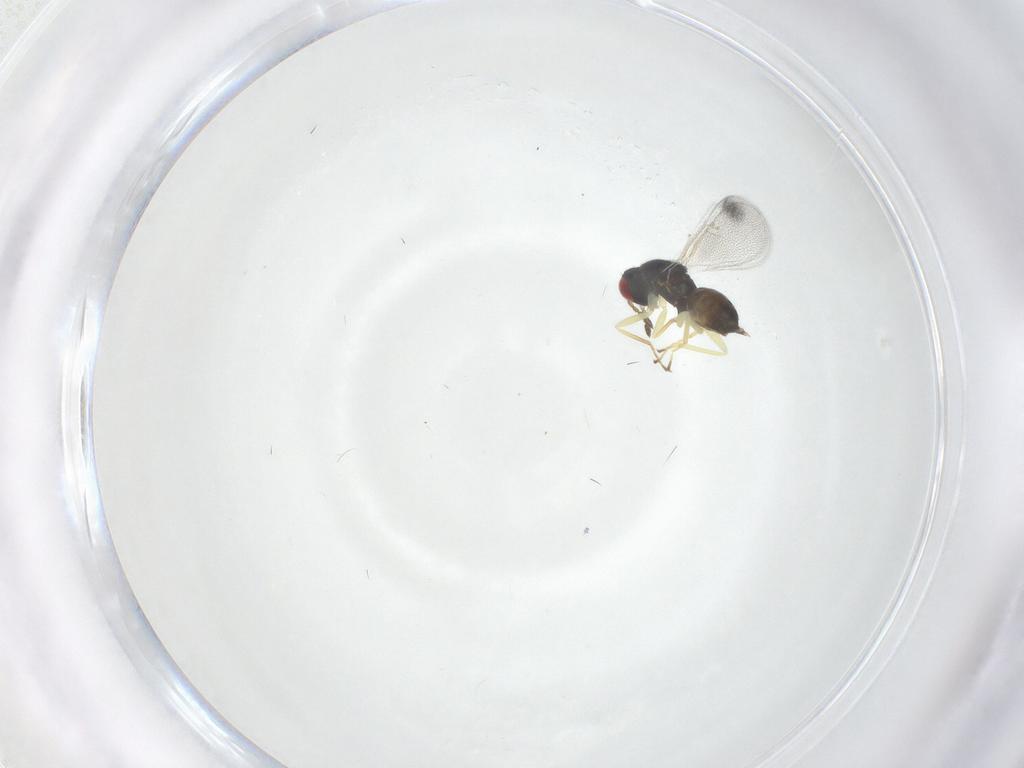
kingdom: Animalia
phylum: Arthropoda
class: Insecta
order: Hymenoptera
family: Eulophidae
